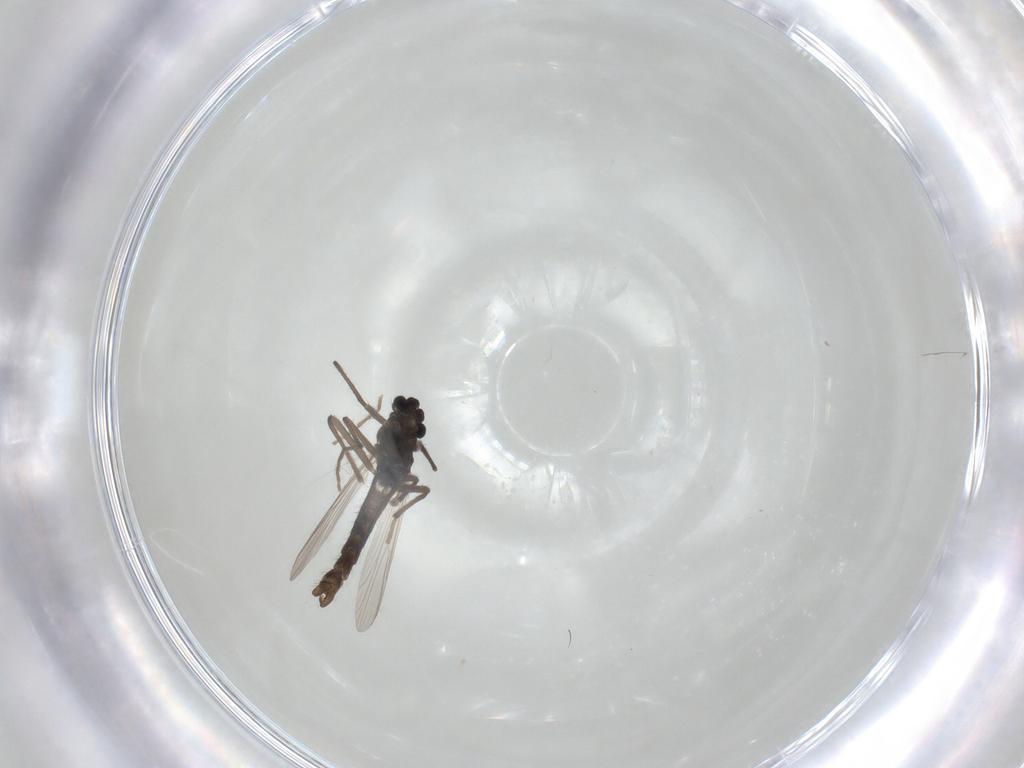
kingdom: Animalia
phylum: Arthropoda
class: Insecta
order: Diptera
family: Chironomidae
